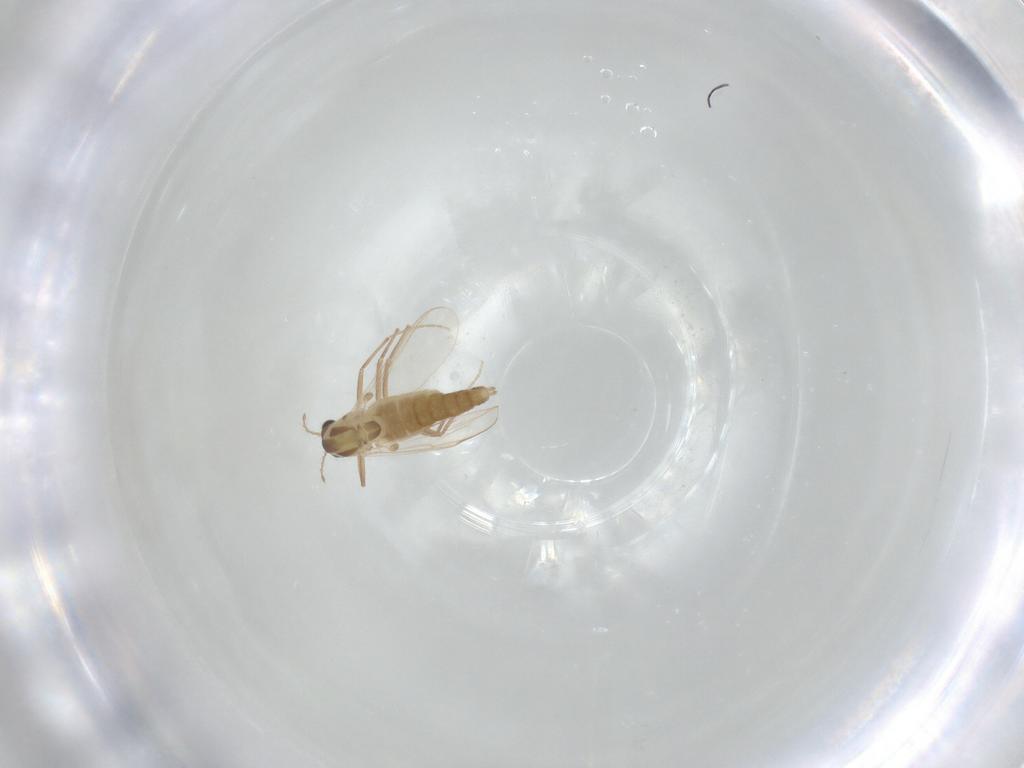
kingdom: Animalia
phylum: Arthropoda
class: Insecta
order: Diptera
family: Chironomidae
